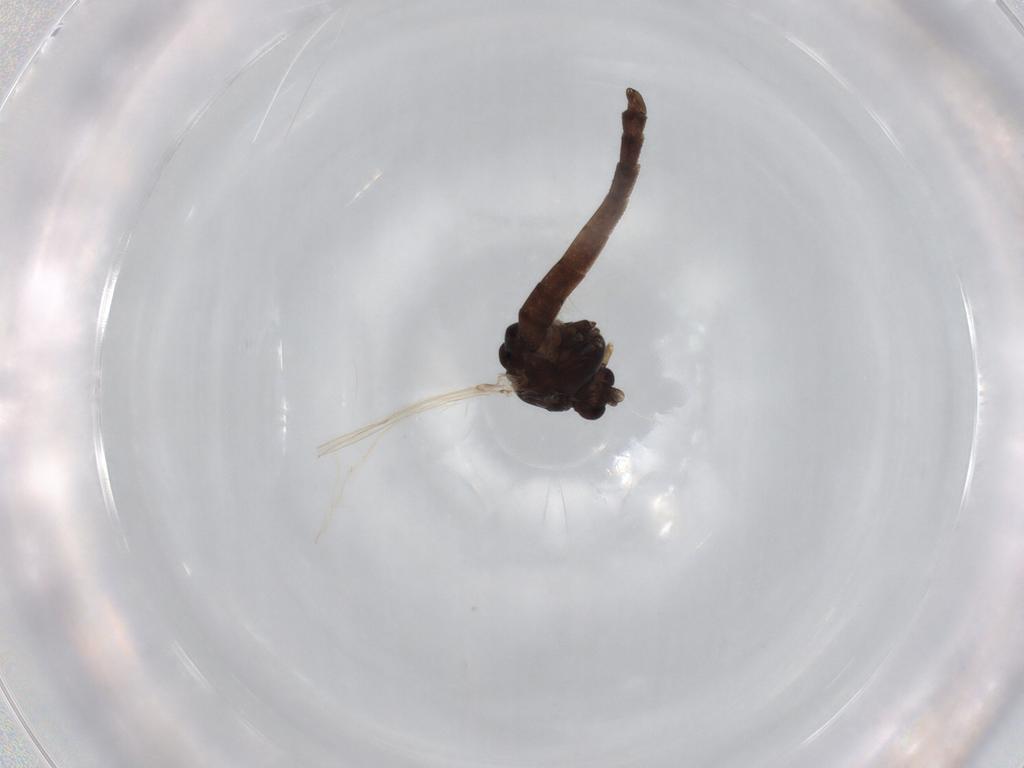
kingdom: Animalia
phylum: Arthropoda
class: Insecta
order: Diptera
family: Chironomidae
